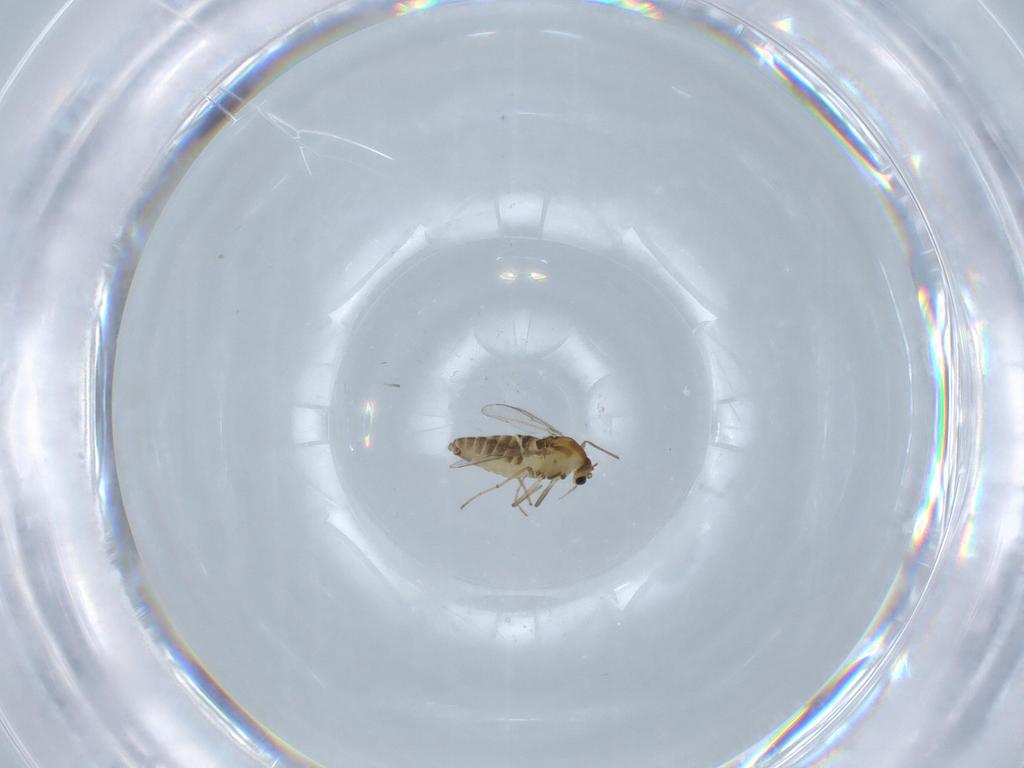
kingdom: Animalia
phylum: Arthropoda
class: Insecta
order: Diptera
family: Chironomidae
